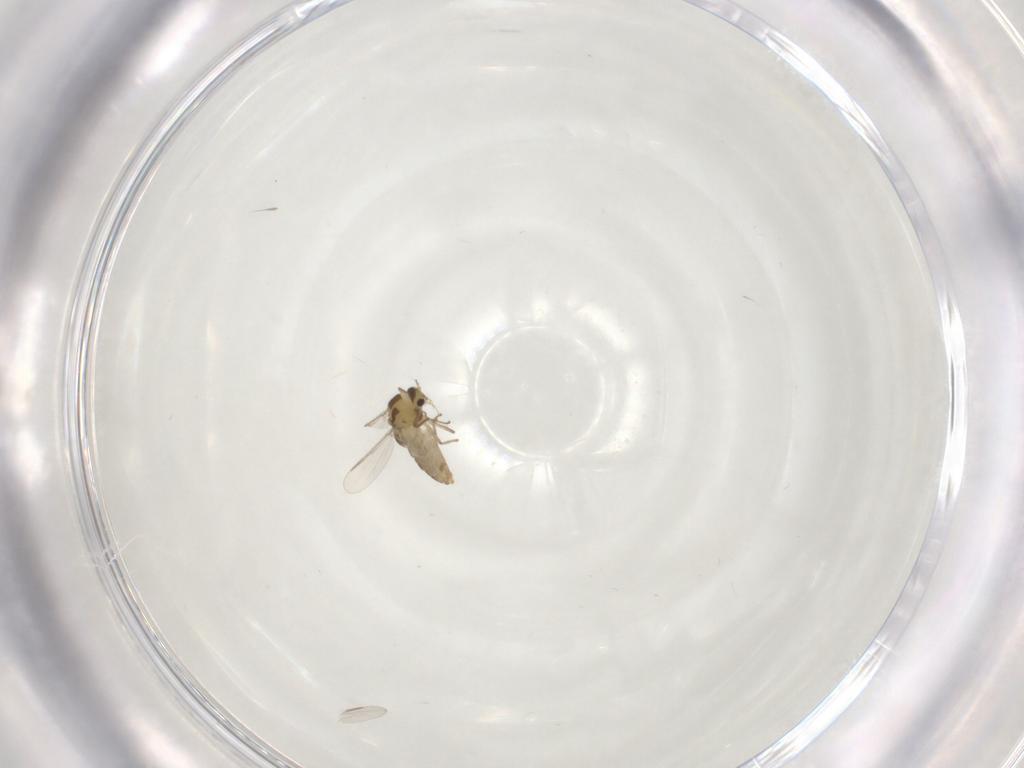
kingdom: Animalia
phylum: Arthropoda
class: Insecta
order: Diptera
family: Chironomidae
